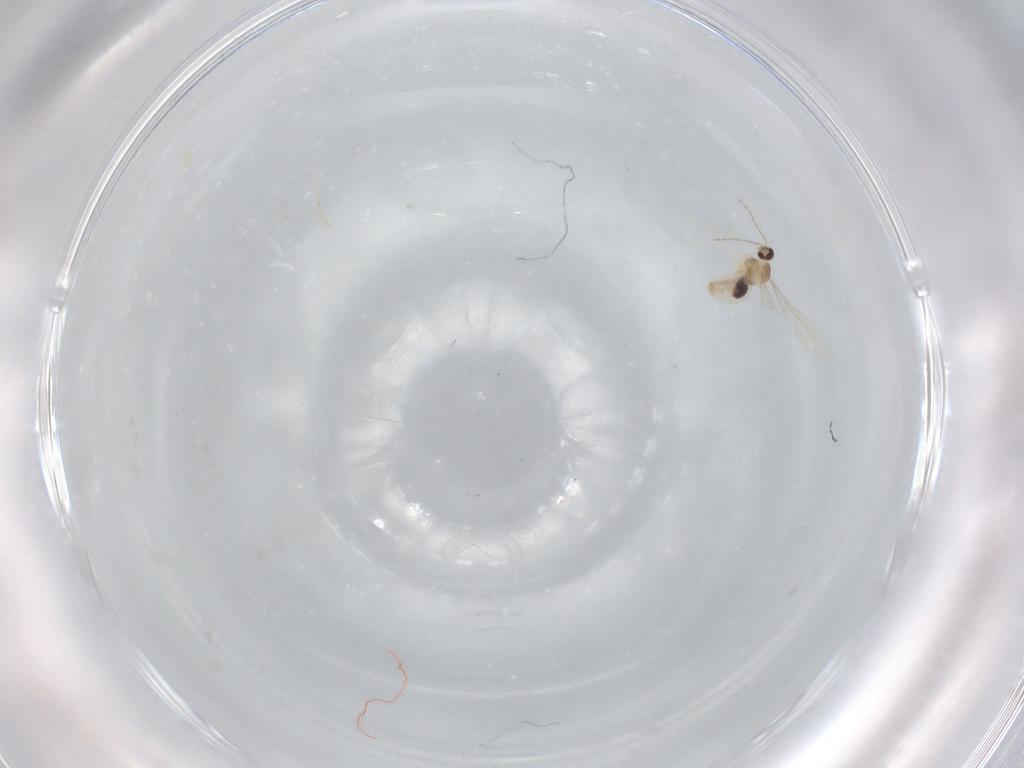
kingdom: Animalia
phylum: Arthropoda
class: Insecta
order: Diptera
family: Cecidomyiidae
